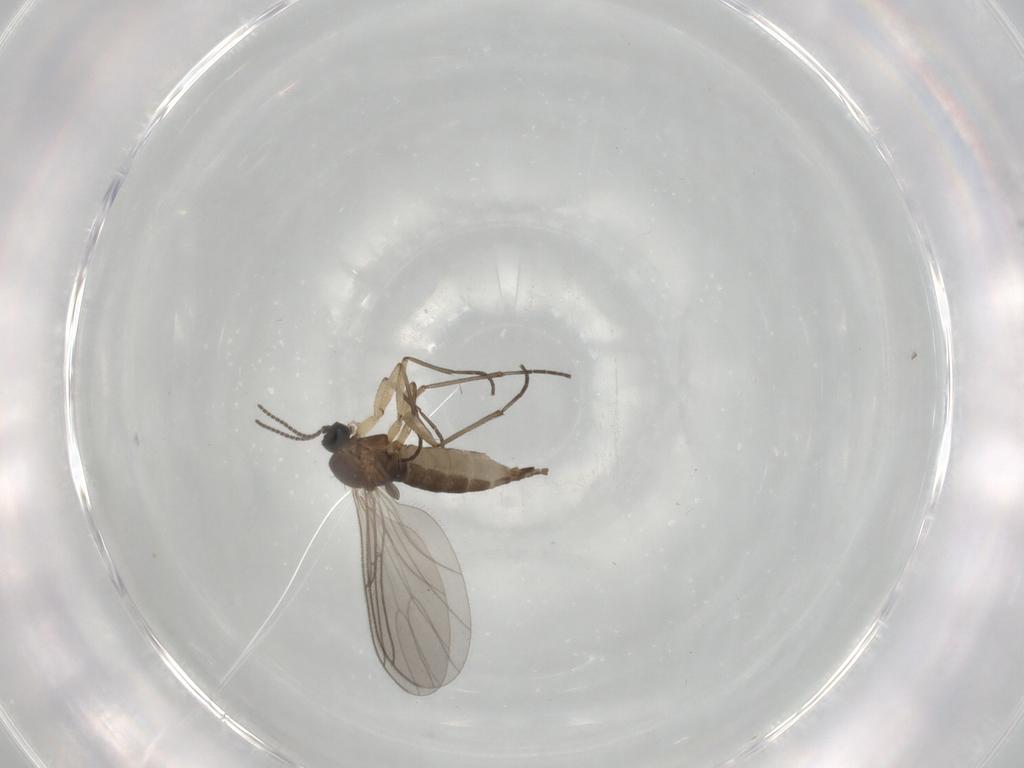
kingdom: Animalia
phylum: Arthropoda
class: Insecta
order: Diptera
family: Sciaridae
